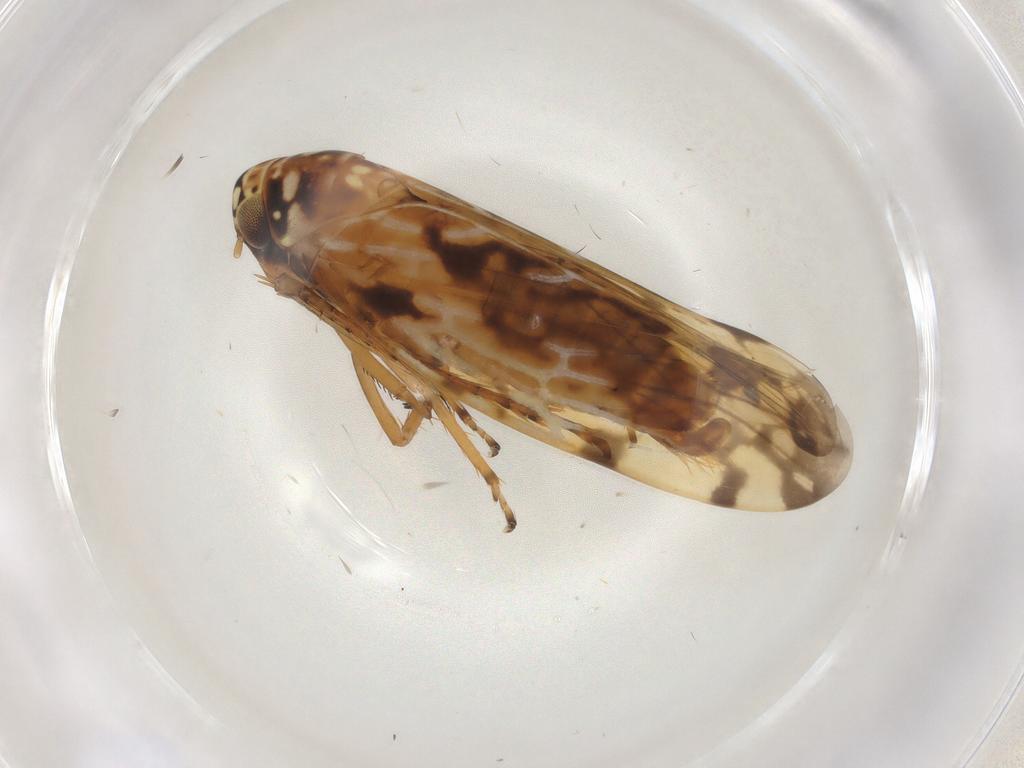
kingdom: Animalia
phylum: Arthropoda
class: Insecta
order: Hemiptera
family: Cicadellidae
